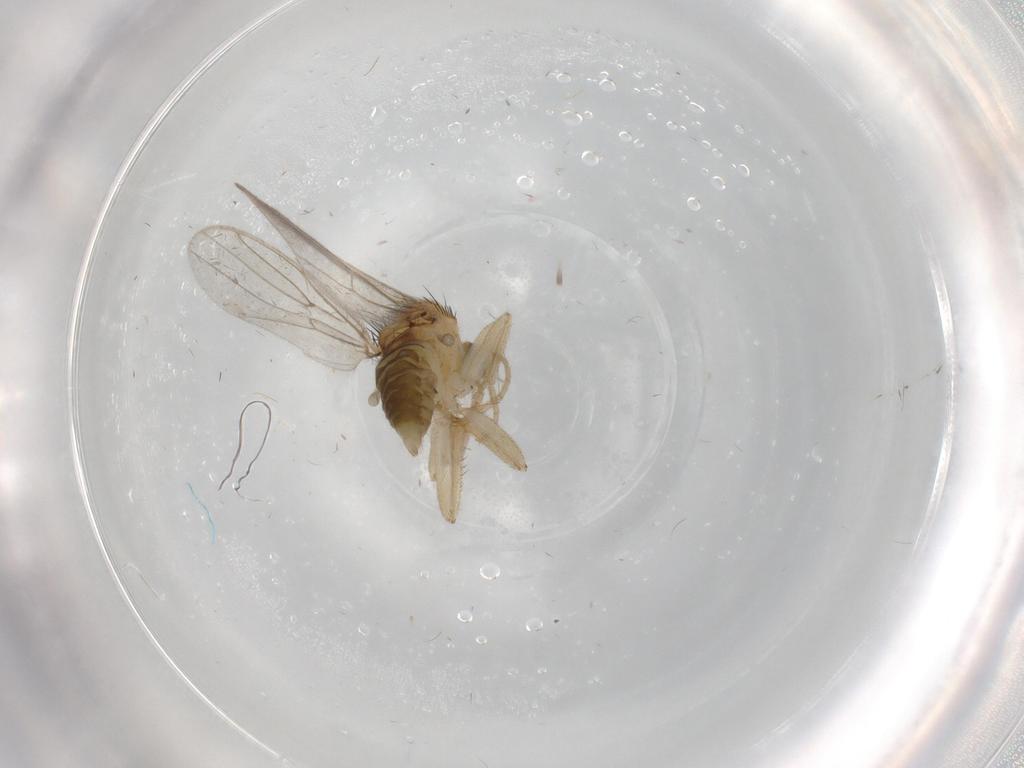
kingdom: Animalia
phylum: Arthropoda
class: Insecta
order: Diptera
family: Hybotidae
